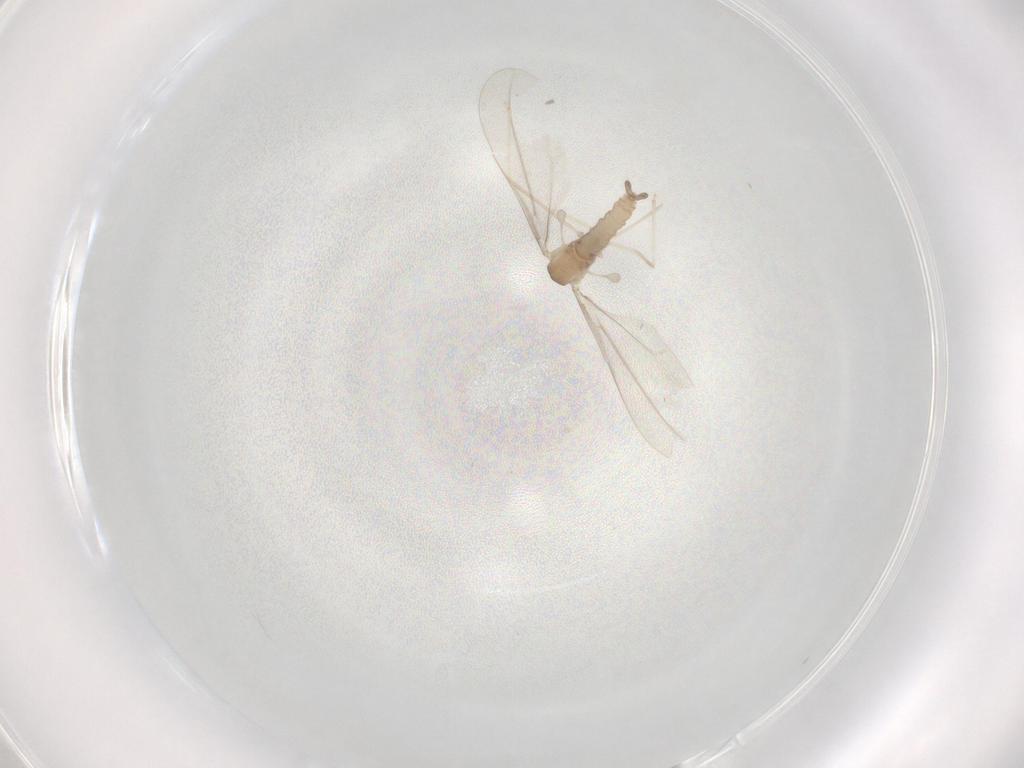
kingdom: Animalia
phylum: Arthropoda
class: Insecta
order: Diptera
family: Cecidomyiidae
